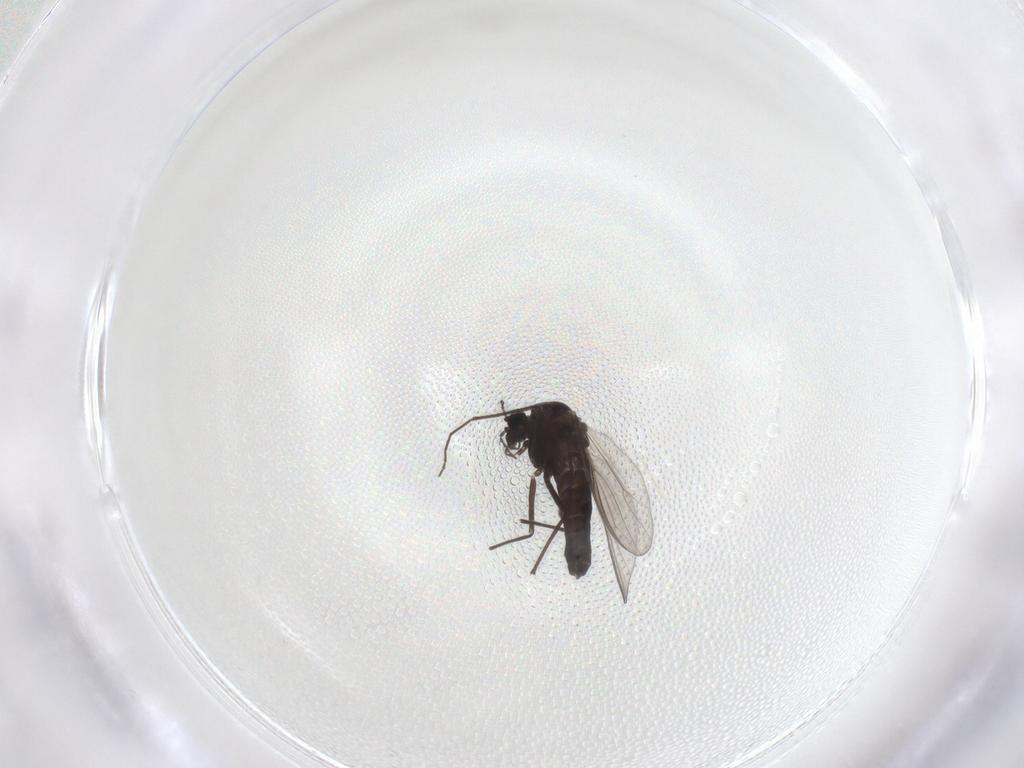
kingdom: Animalia
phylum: Arthropoda
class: Insecta
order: Diptera
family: Chironomidae
